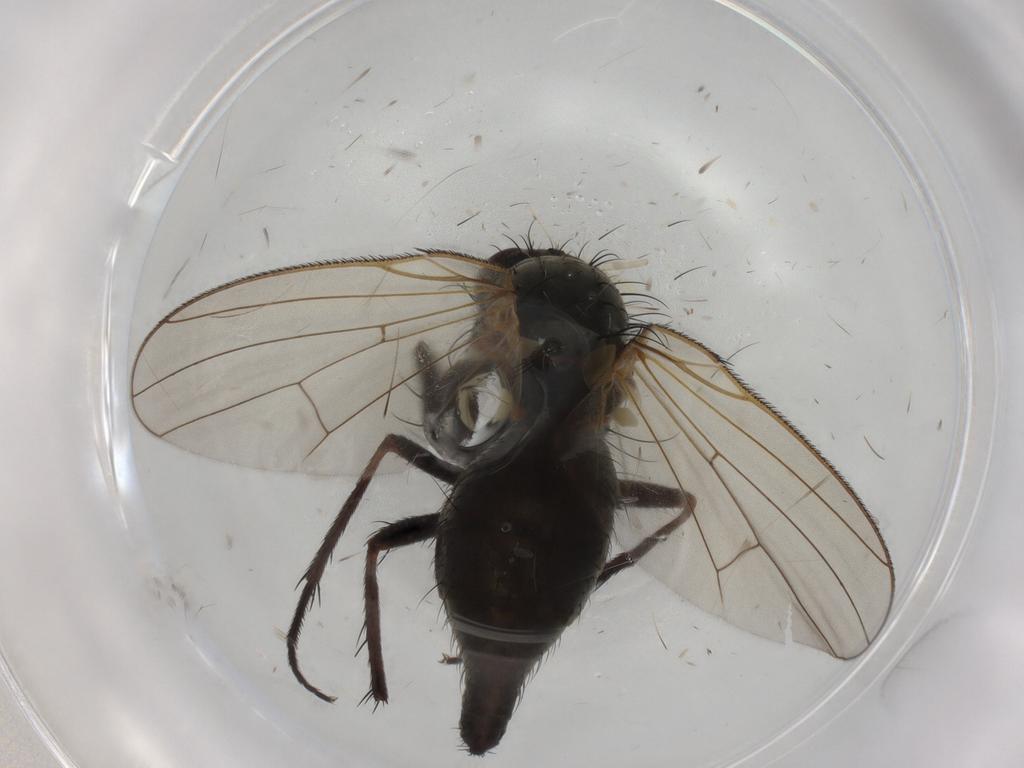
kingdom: Animalia
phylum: Arthropoda
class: Insecta
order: Diptera
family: Anthomyiidae
